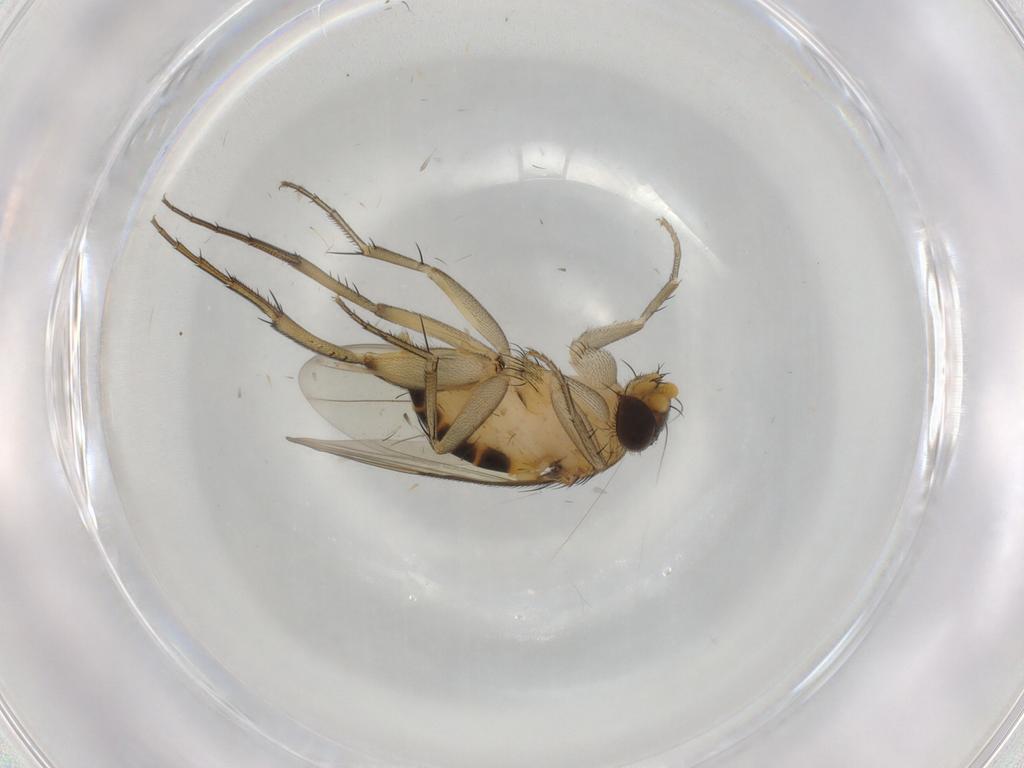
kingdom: Animalia
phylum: Arthropoda
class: Insecta
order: Diptera
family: Phoridae
